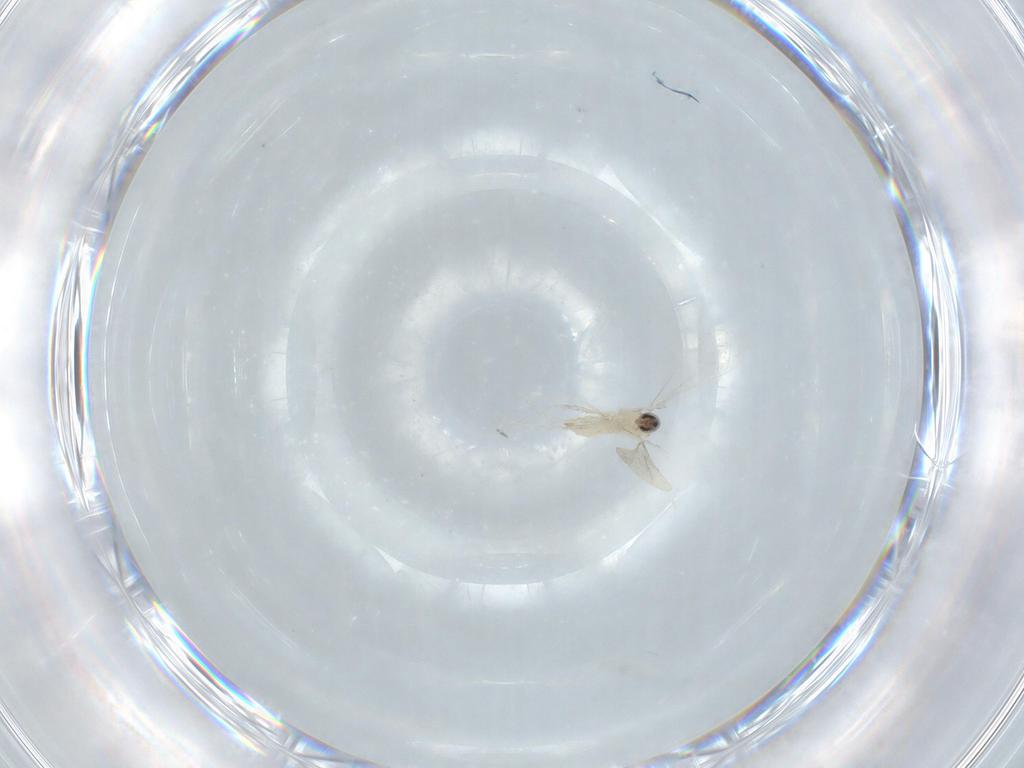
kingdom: Animalia
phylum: Arthropoda
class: Insecta
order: Diptera
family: Cecidomyiidae
